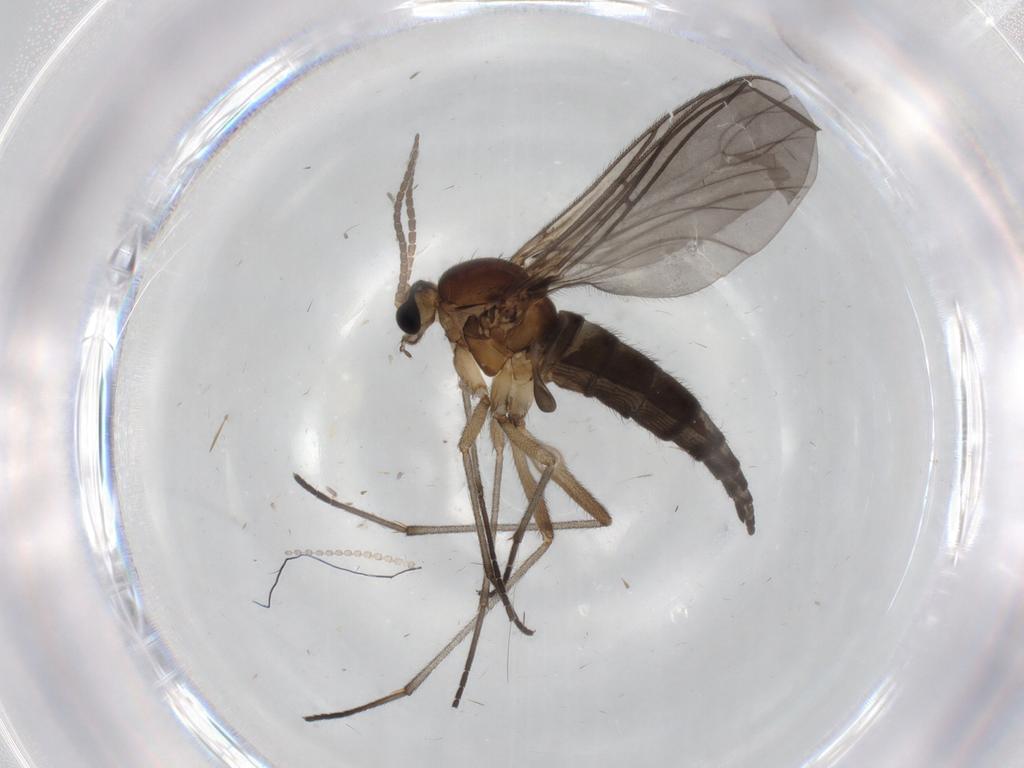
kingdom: Animalia
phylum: Arthropoda
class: Insecta
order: Diptera
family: Sciaridae
